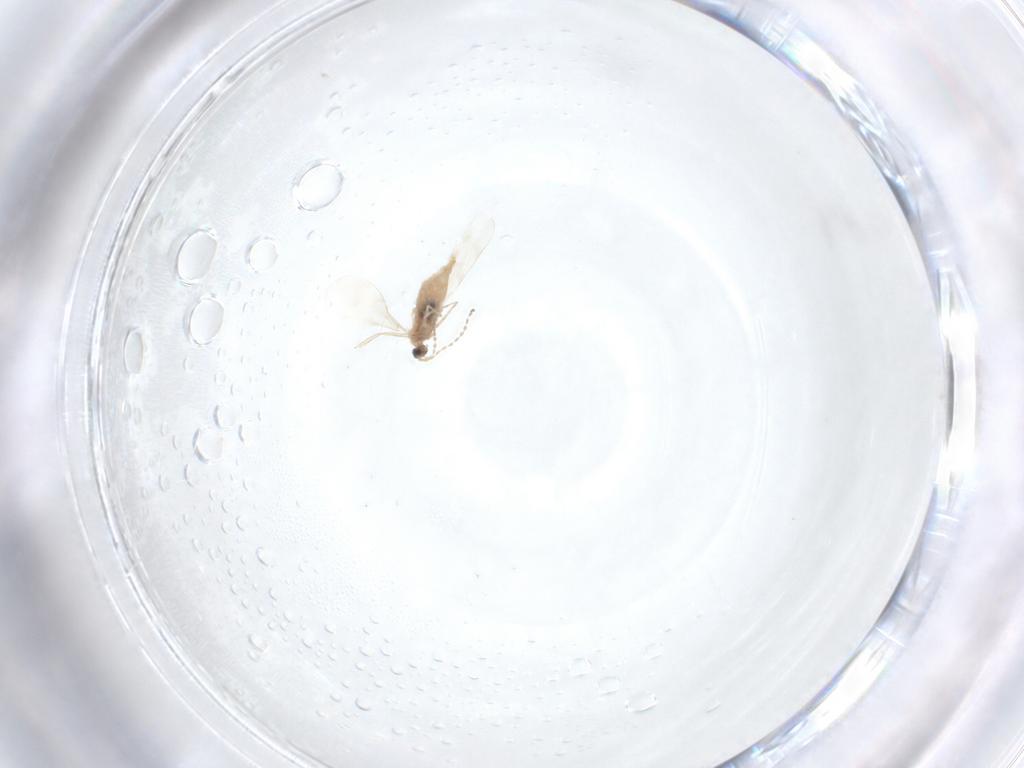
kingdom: Animalia
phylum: Arthropoda
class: Insecta
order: Diptera
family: Cecidomyiidae
